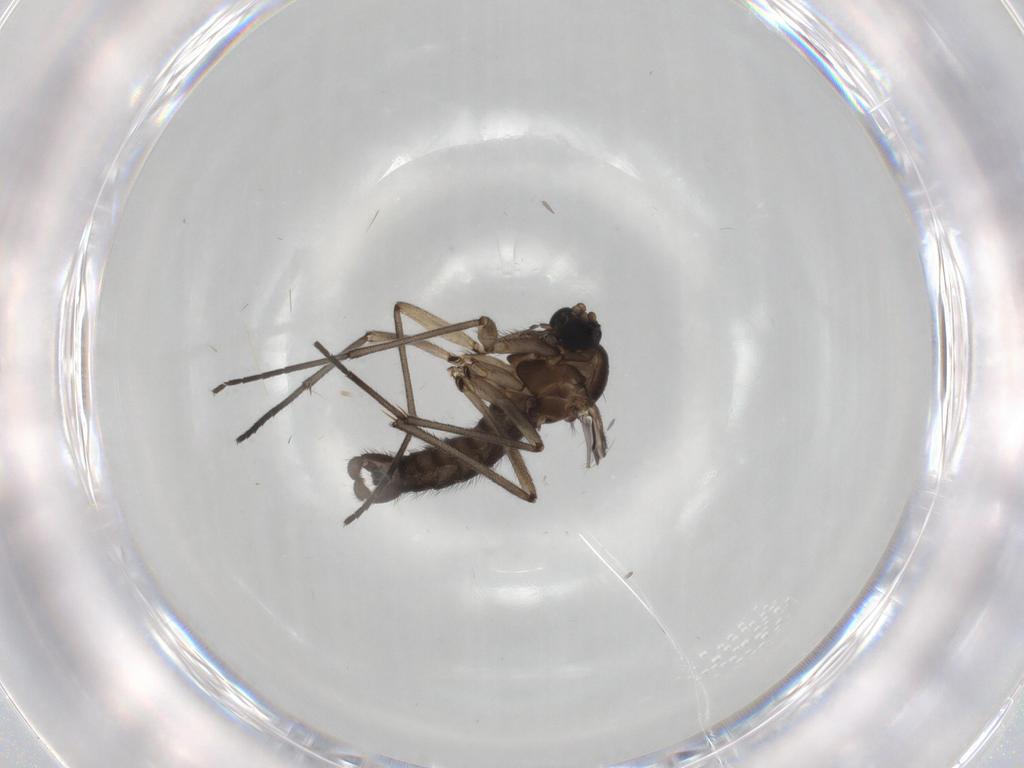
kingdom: Animalia
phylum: Arthropoda
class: Insecta
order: Diptera
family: Sciaridae
